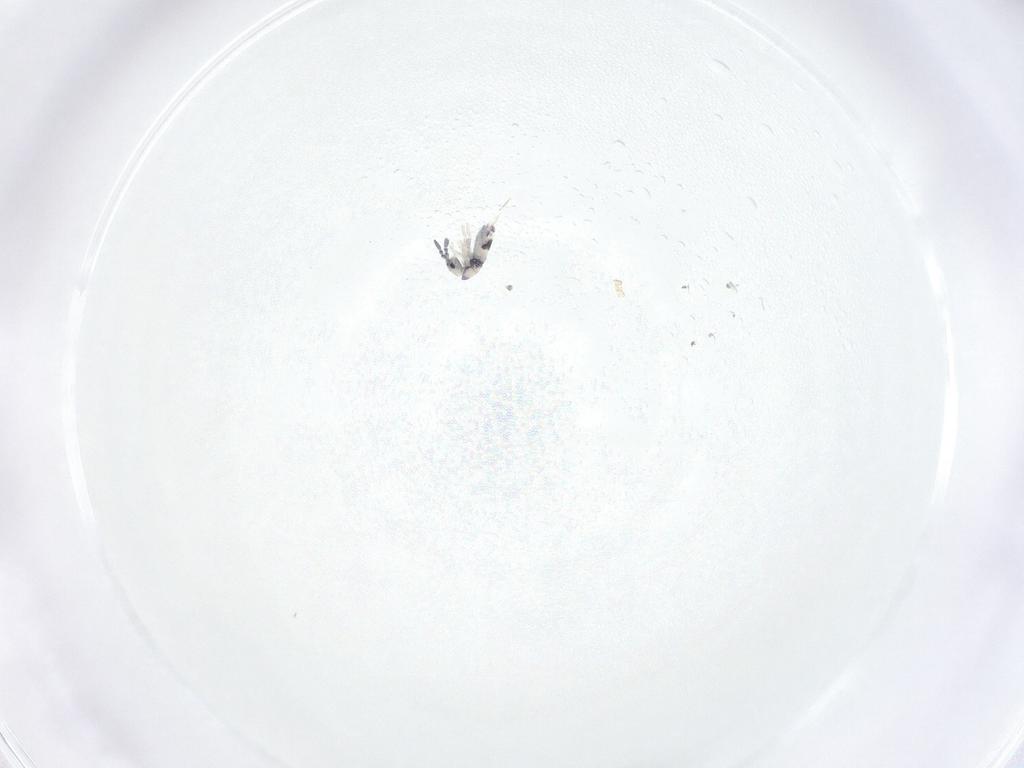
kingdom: Animalia
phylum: Arthropoda
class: Collembola
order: Entomobryomorpha
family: Entomobryidae
